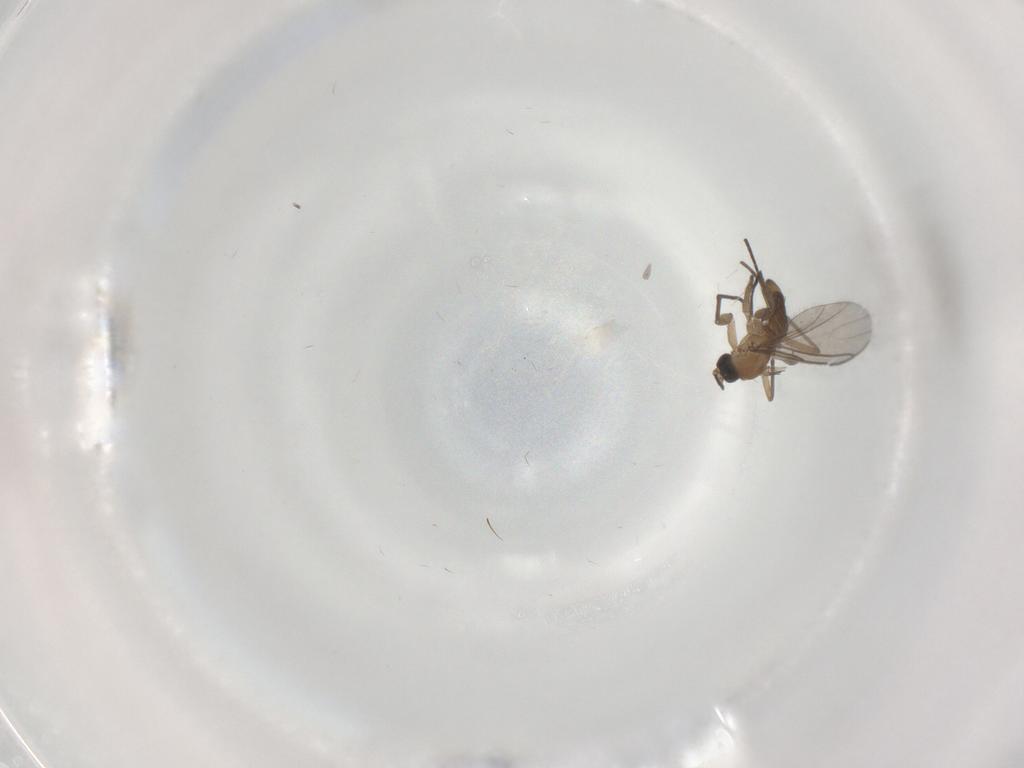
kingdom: Animalia
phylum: Arthropoda
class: Insecta
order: Diptera
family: Sciaridae
